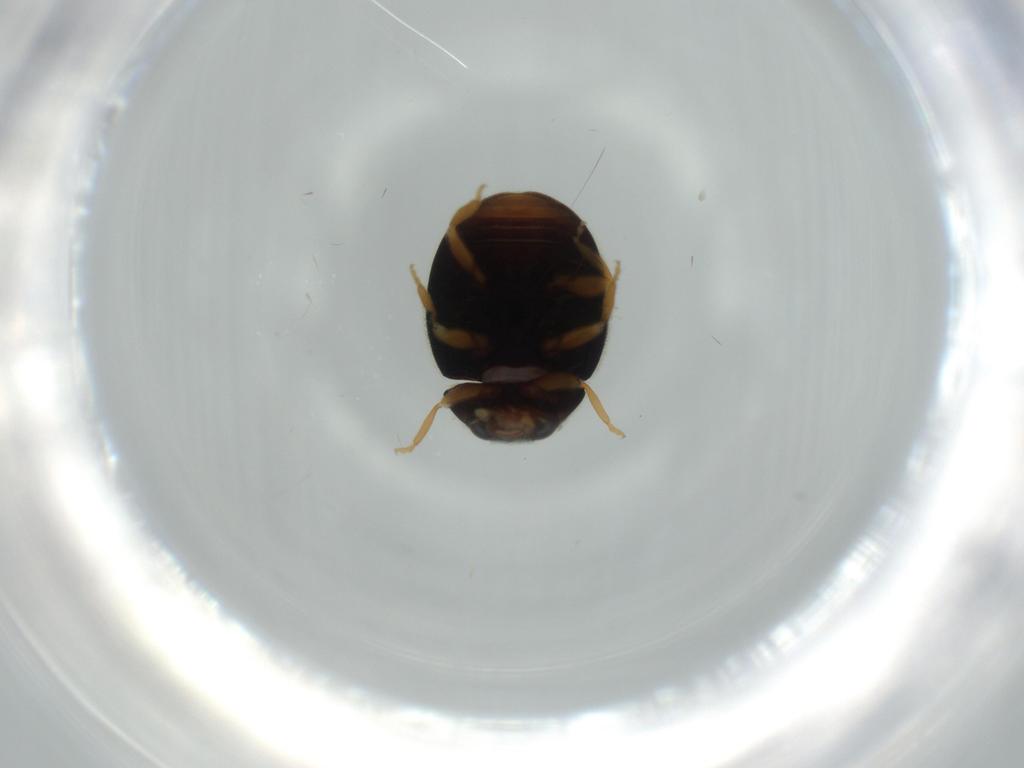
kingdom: Animalia
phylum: Arthropoda
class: Insecta
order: Coleoptera
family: Coccinellidae
